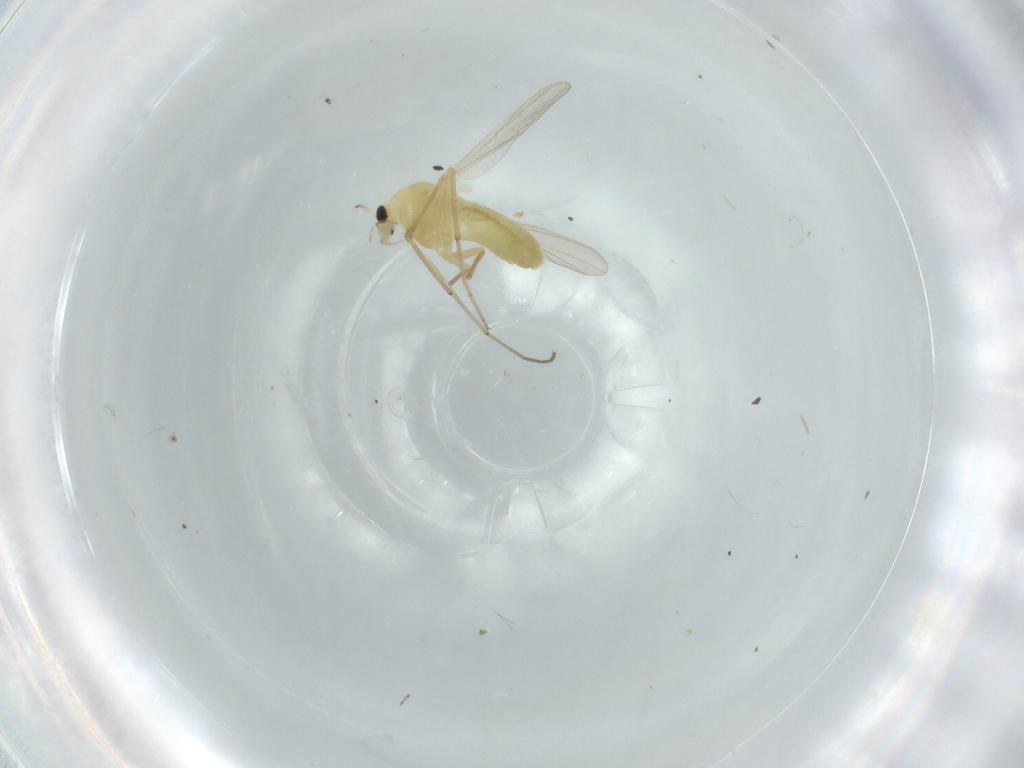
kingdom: Animalia
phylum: Arthropoda
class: Insecta
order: Diptera
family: Chironomidae
